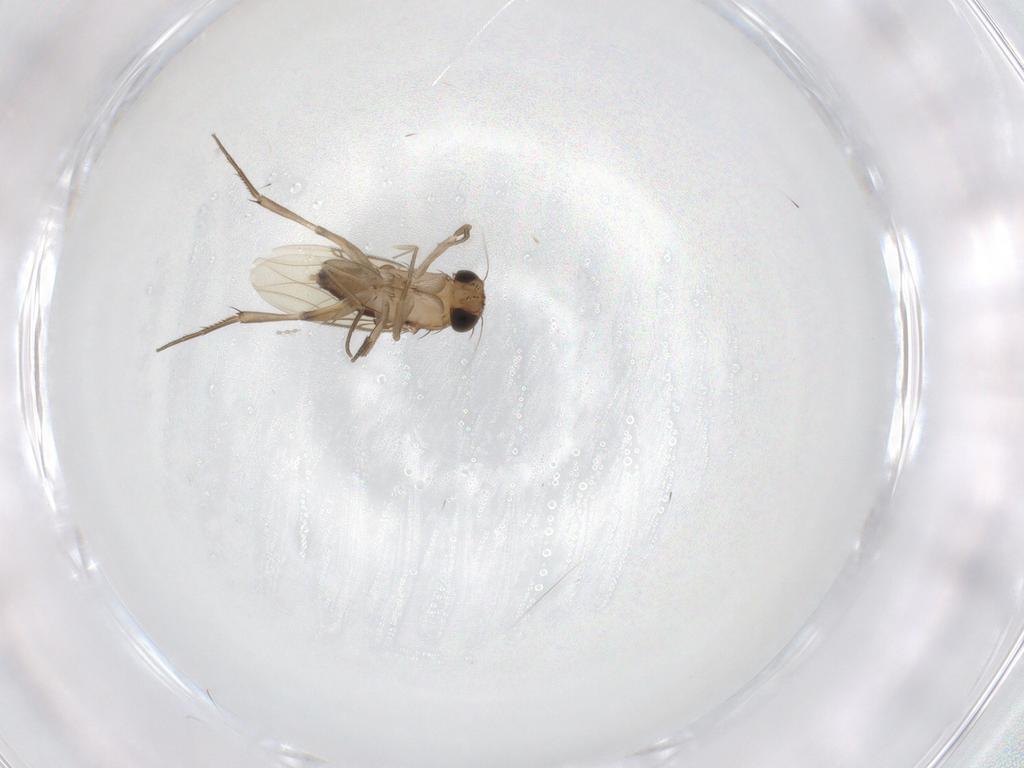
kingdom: Animalia
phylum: Arthropoda
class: Insecta
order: Diptera
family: Phoridae
